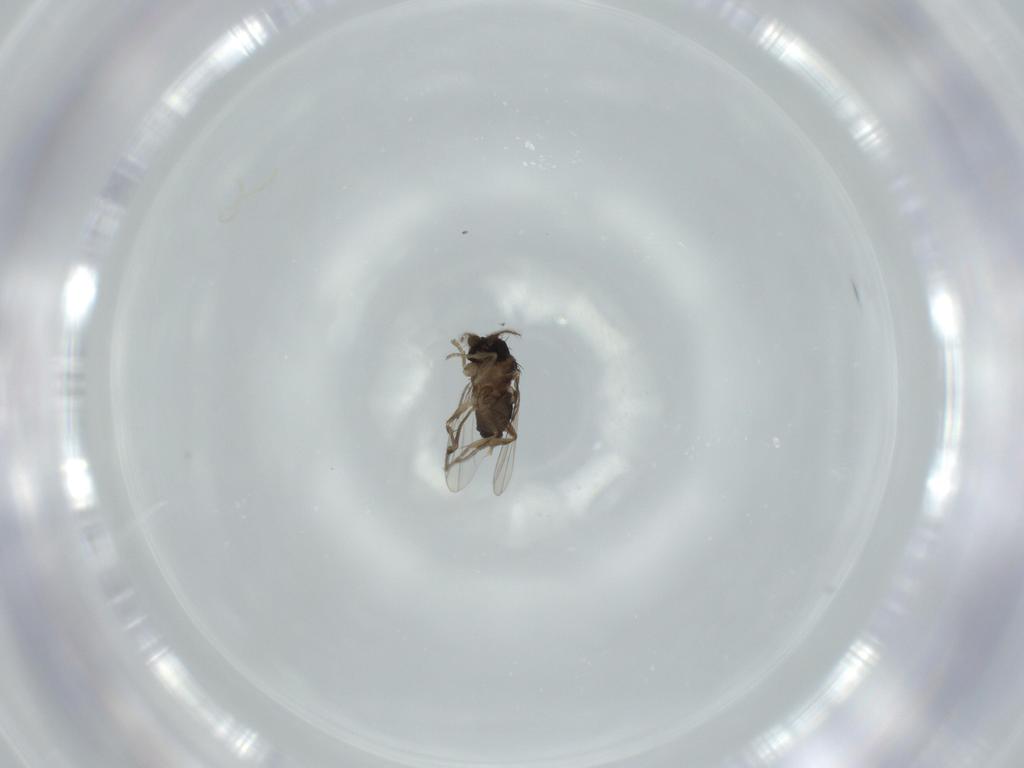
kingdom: Animalia
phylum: Arthropoda
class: Insecta
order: Diptera
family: Phoridae
